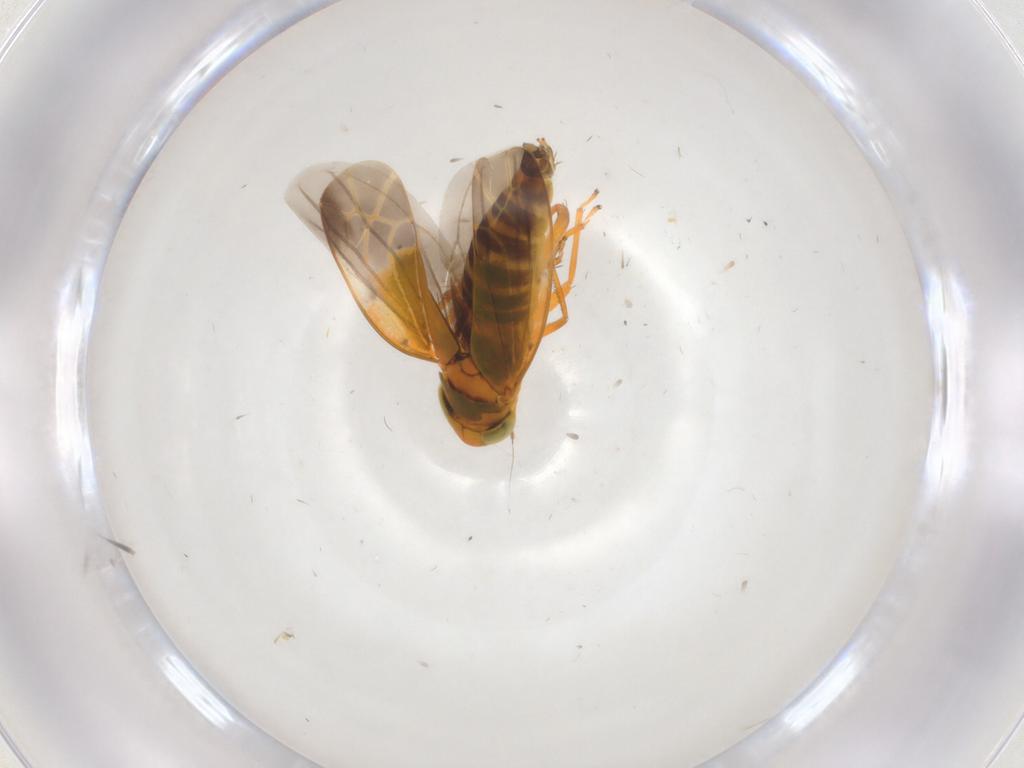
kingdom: Animalia
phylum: Arthropoda
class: Insecta
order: Hemiptera
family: Cicadellidae
